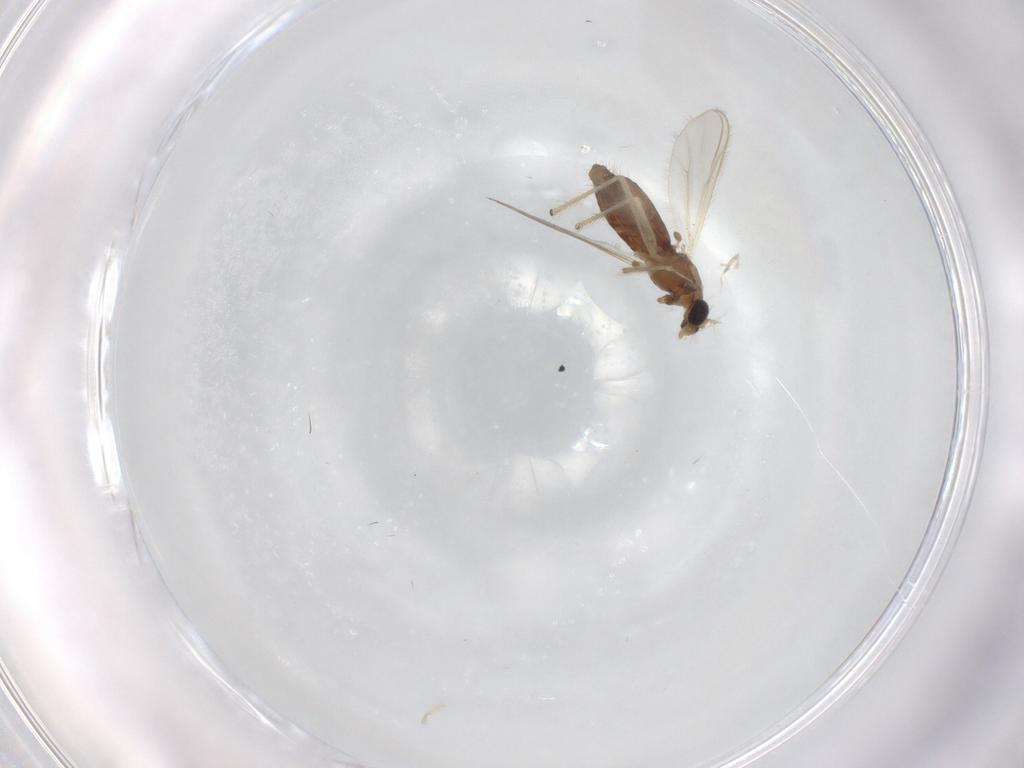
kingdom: Animalia
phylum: Arthropoda
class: Insecta
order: Diptera
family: Chironomidae
